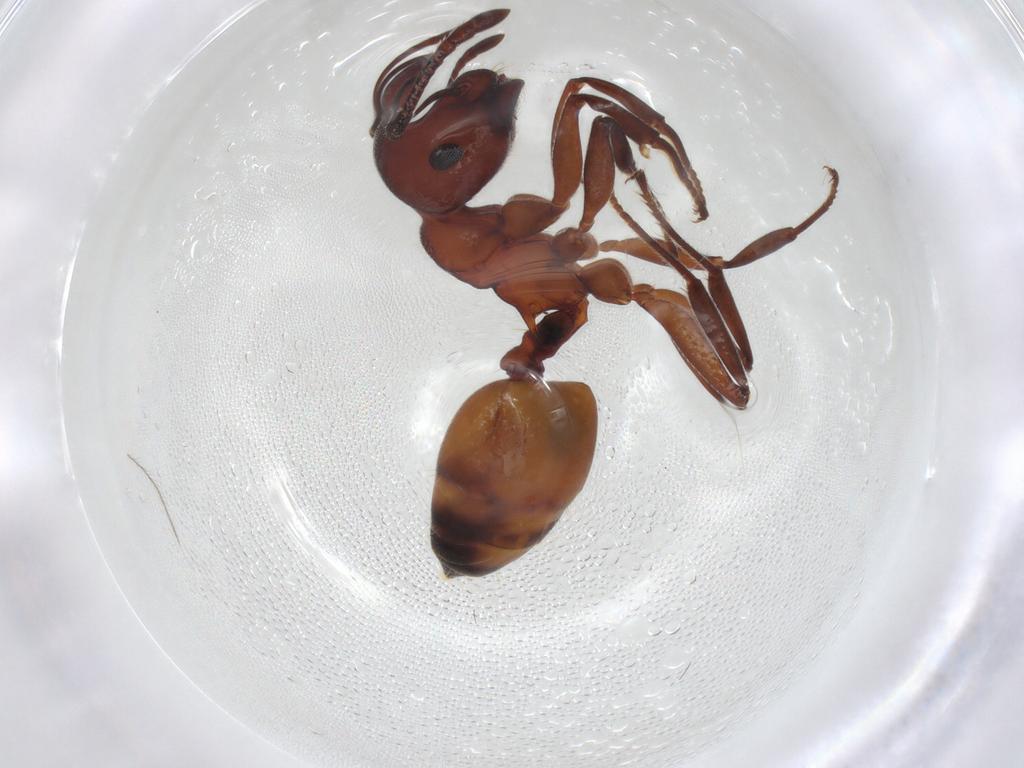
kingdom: Animalia
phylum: Arthropoda
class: Insecta
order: Hymenoptera
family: Formicidae
